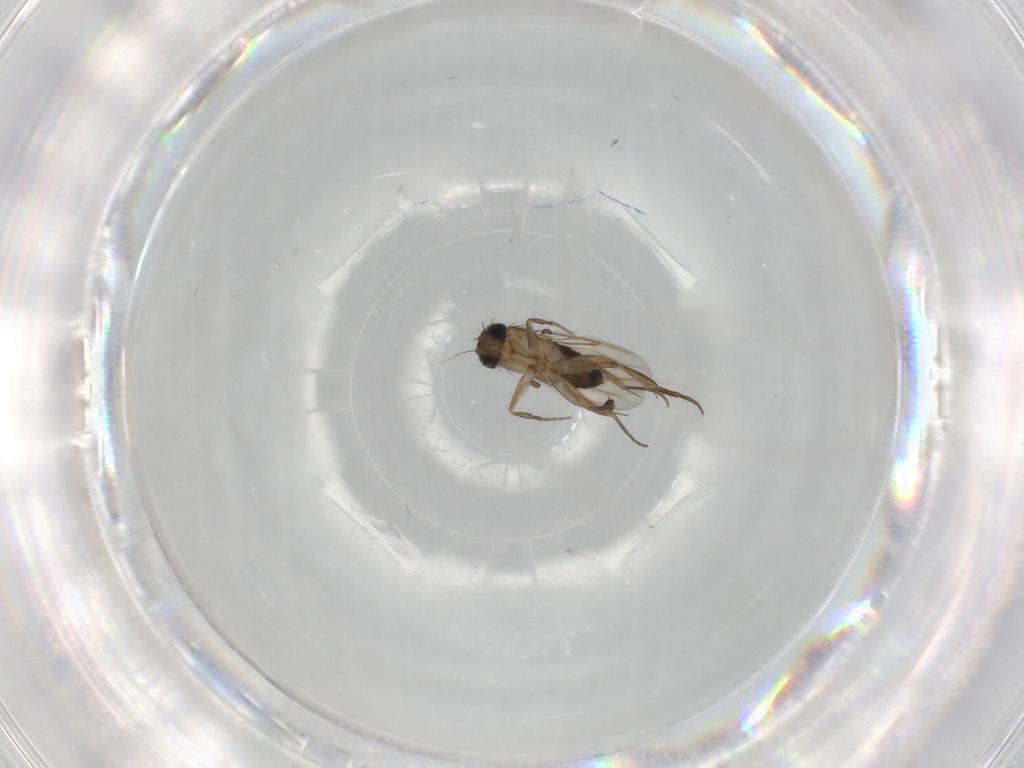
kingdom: Animalia
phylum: Arthropoda
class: Insecta
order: Diptera
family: Phoridae
